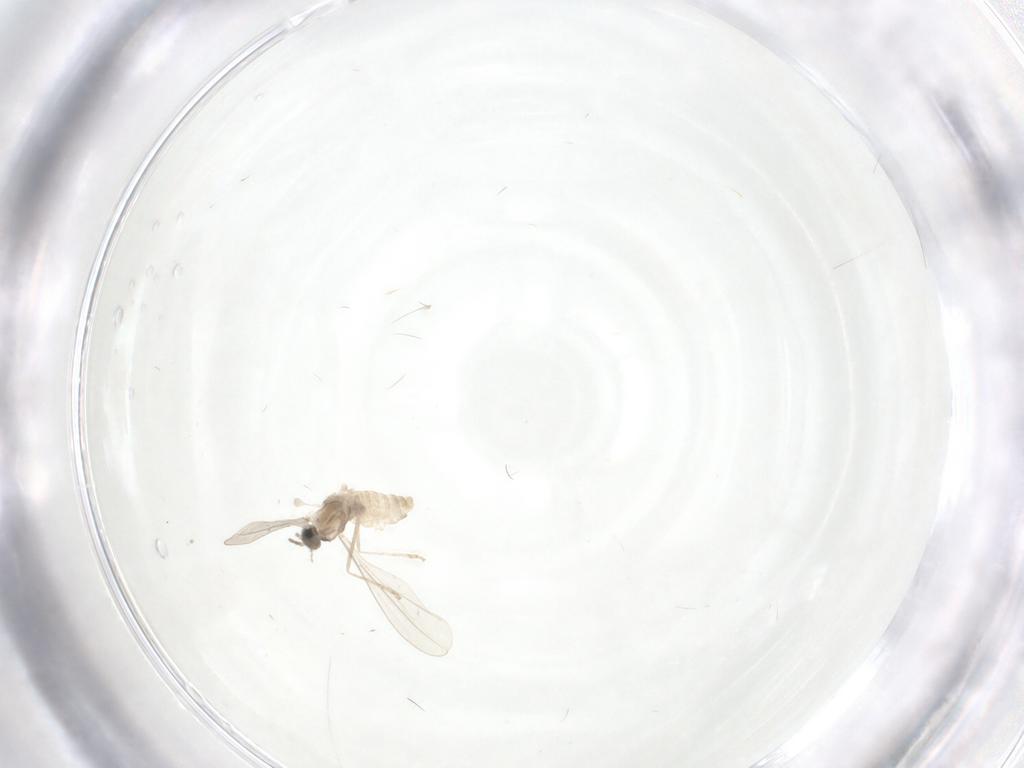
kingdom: Animalia
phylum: Arthropoda
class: Insecta
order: Diptera
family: Cecidomyiidae
